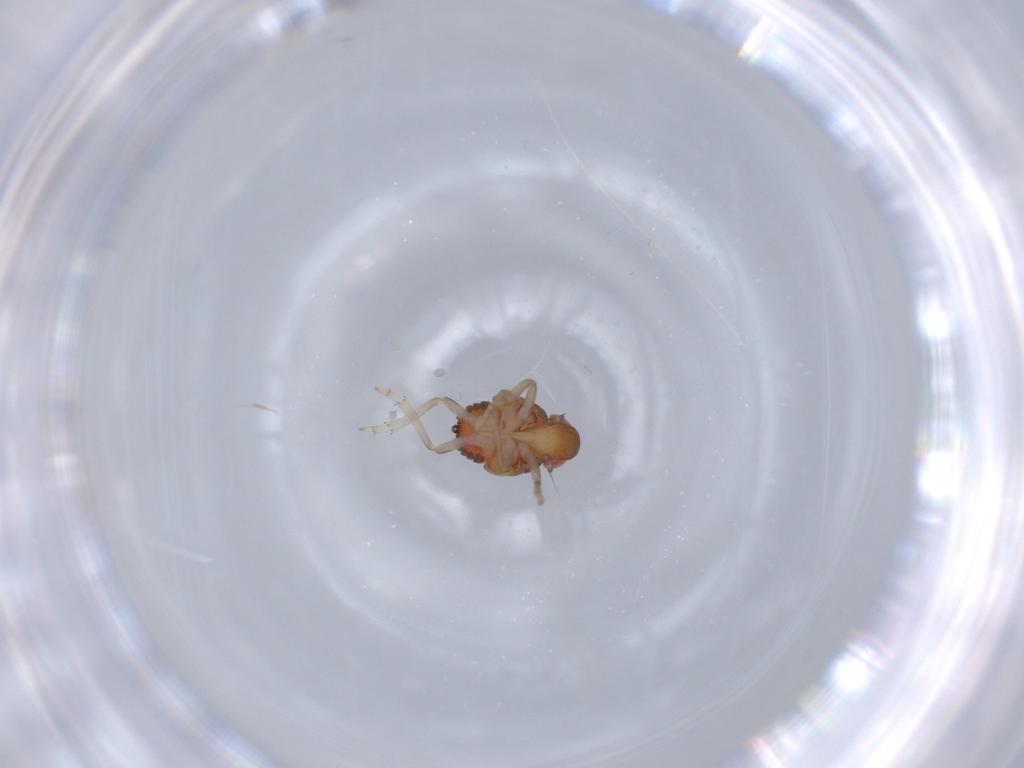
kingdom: Animalia
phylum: Arthropoda
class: Insecta
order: Hemiptera
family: Issidae
